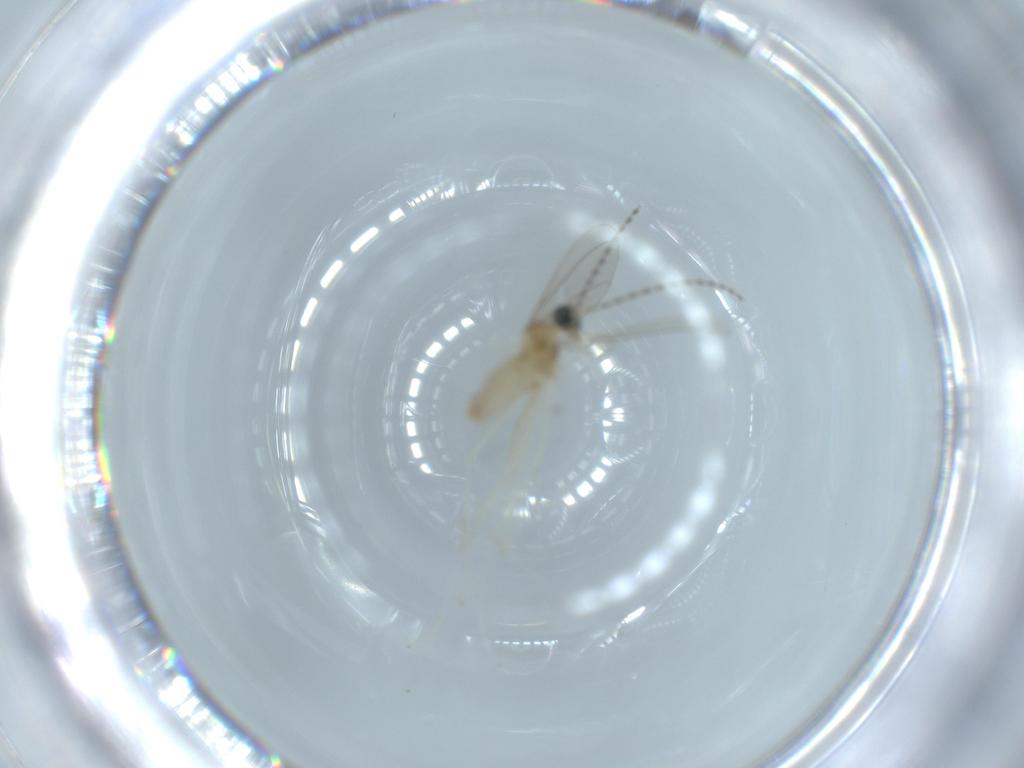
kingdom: Animalia
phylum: Arthropoda
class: Insecta
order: Diptera
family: Cecidomyiidae
